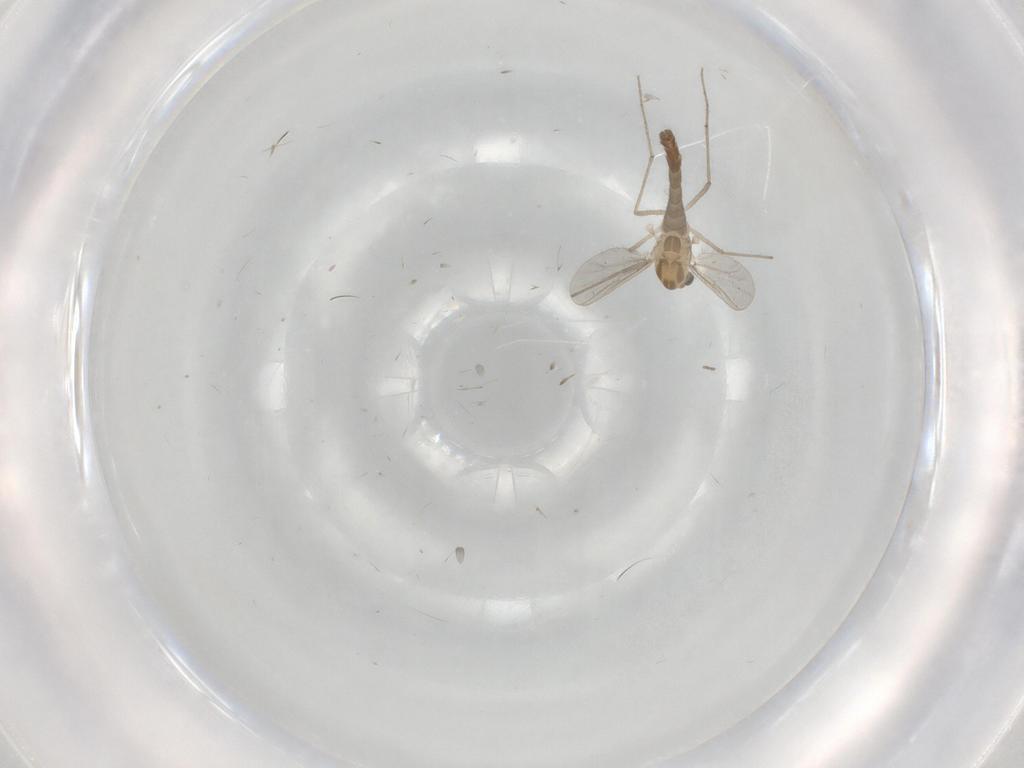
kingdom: Animalia
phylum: Arthropoda
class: Insecta
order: Diptera
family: Chironomidae
